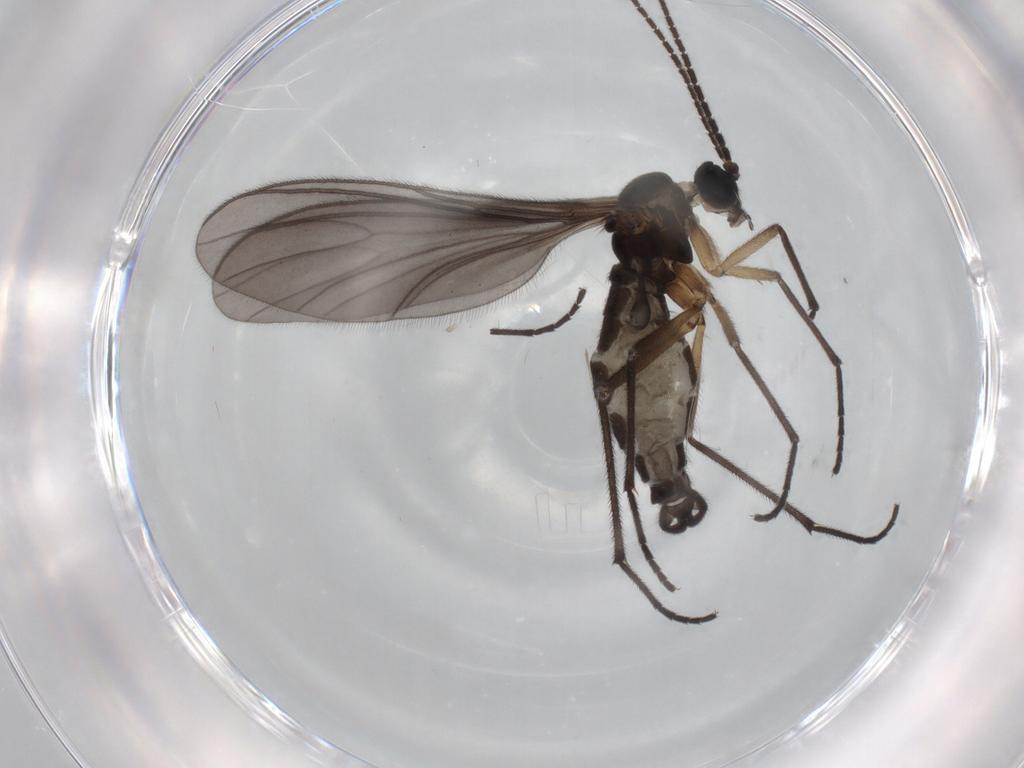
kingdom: Animalia
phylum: Arthropoda
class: Insecta
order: Diptera
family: Sciaridae
